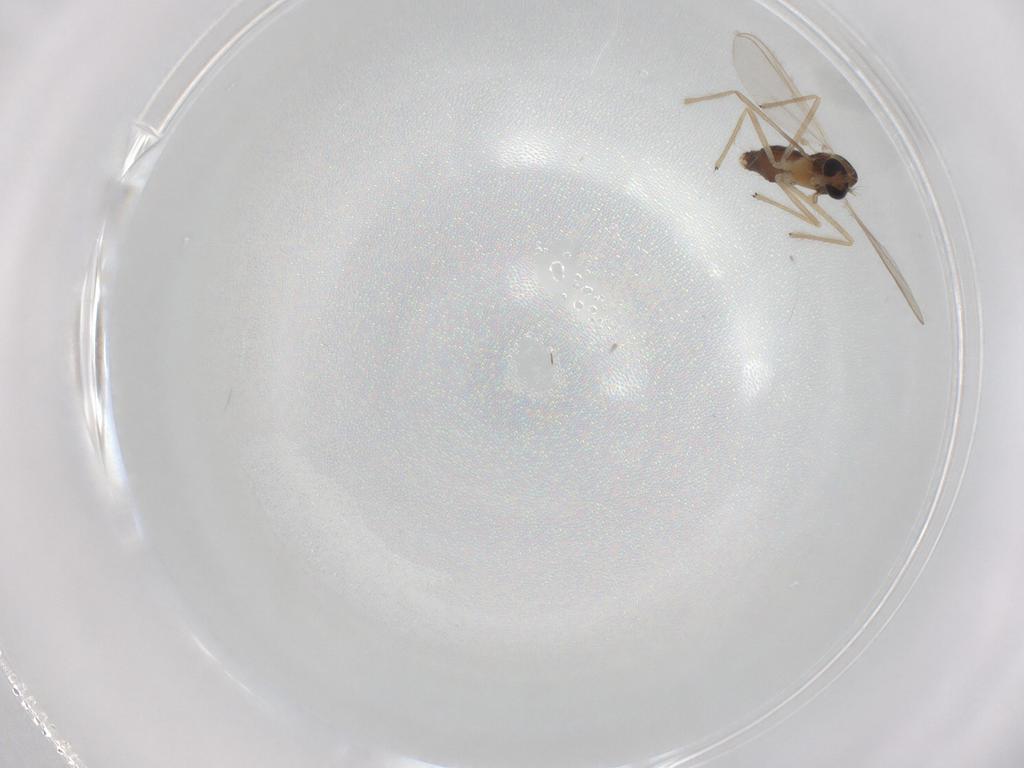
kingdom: Animalia
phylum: Arthropoda
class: Insecta
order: Diptera
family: Chironomidae
